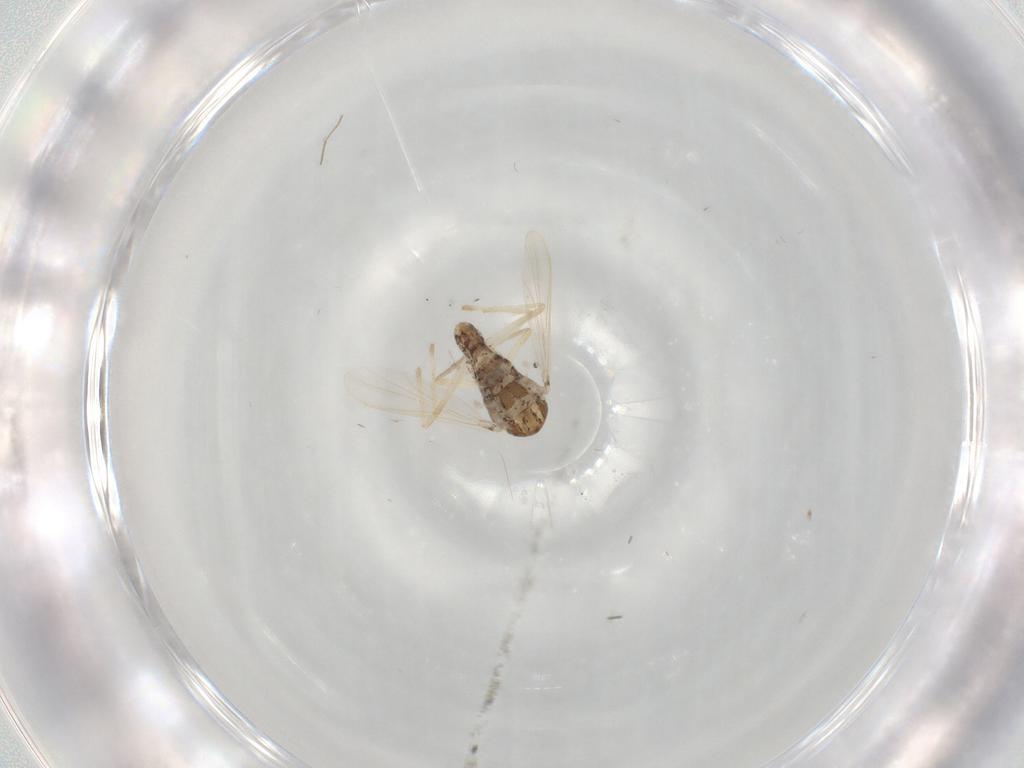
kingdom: Animalia
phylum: Arthropoda
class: Insecta
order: Diptera
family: Chironomidae
